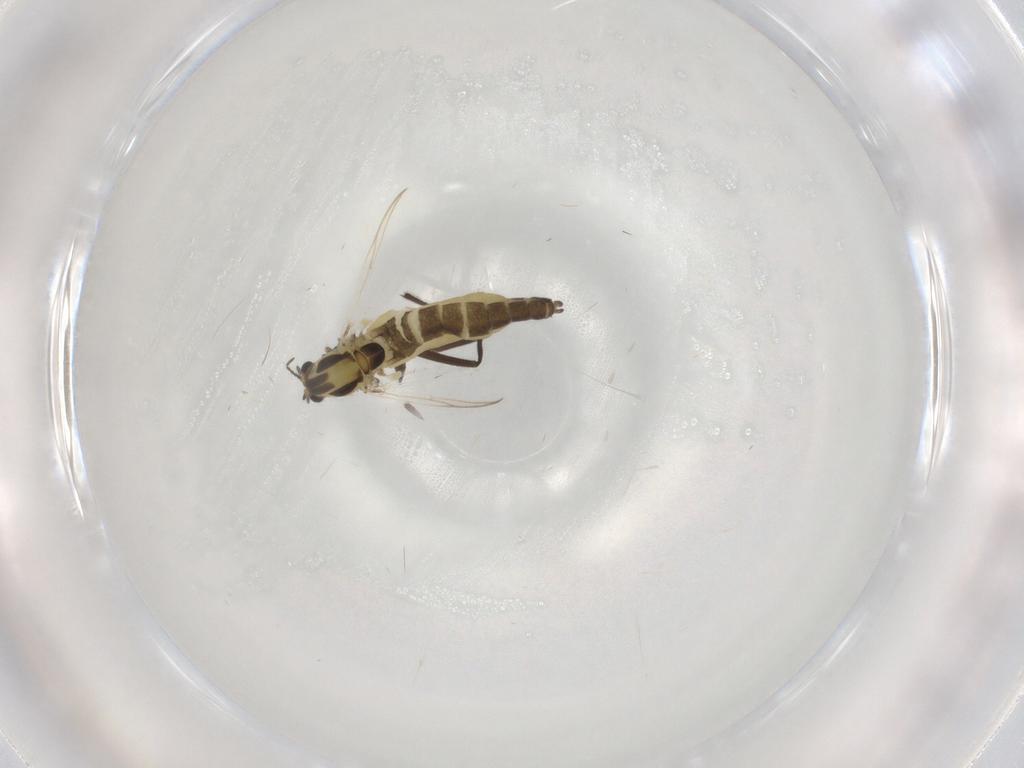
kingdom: Animalia
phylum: Arthropoda
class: Insecta
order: Diptera
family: Chironomidae
